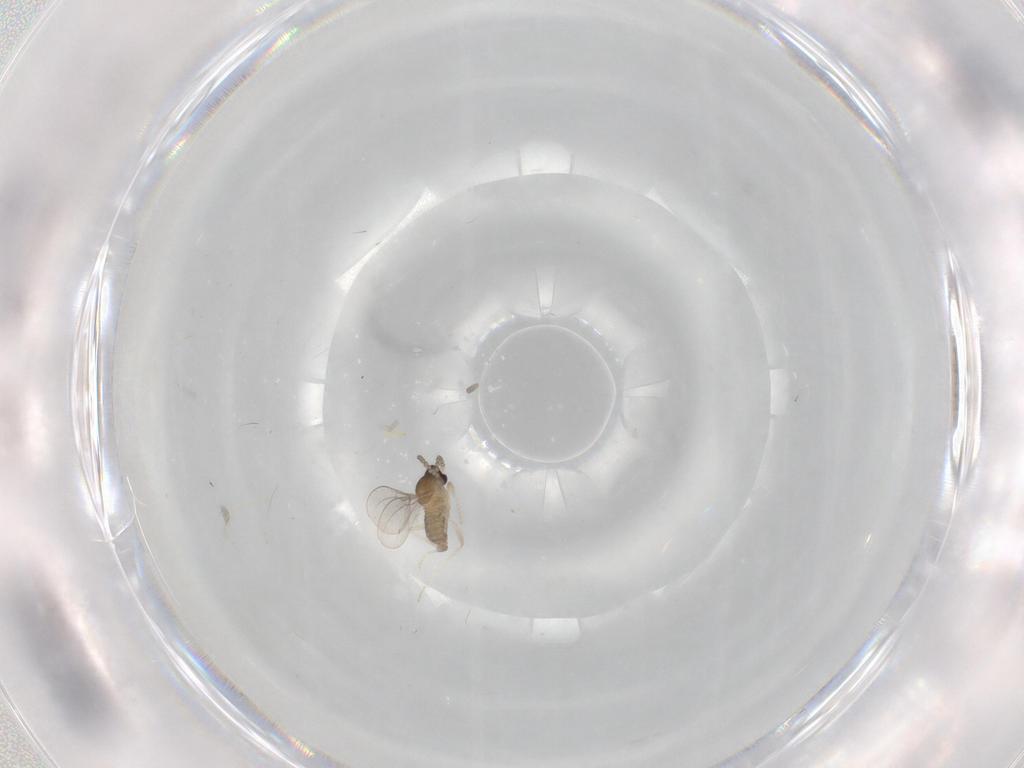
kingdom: Animalia
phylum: Arthropoda
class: Insecta
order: Diptera
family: Cecidomyiidae
